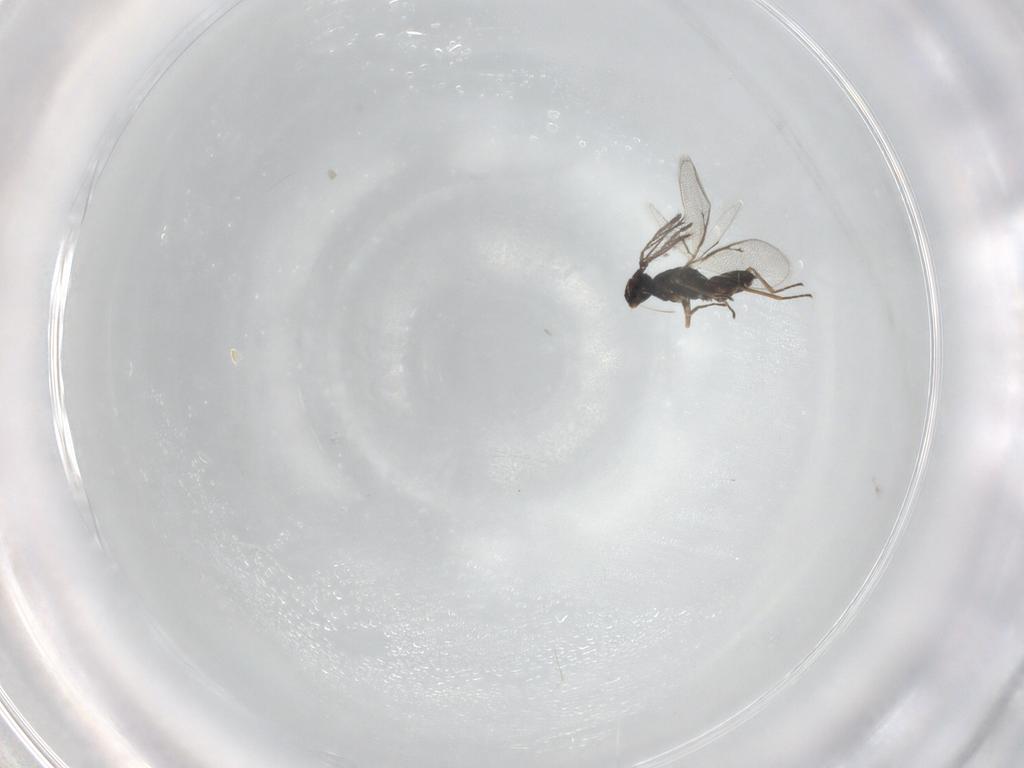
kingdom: Animalia
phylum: Arthropoda
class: Insecta
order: Hymenoptera
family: Eulophidae
